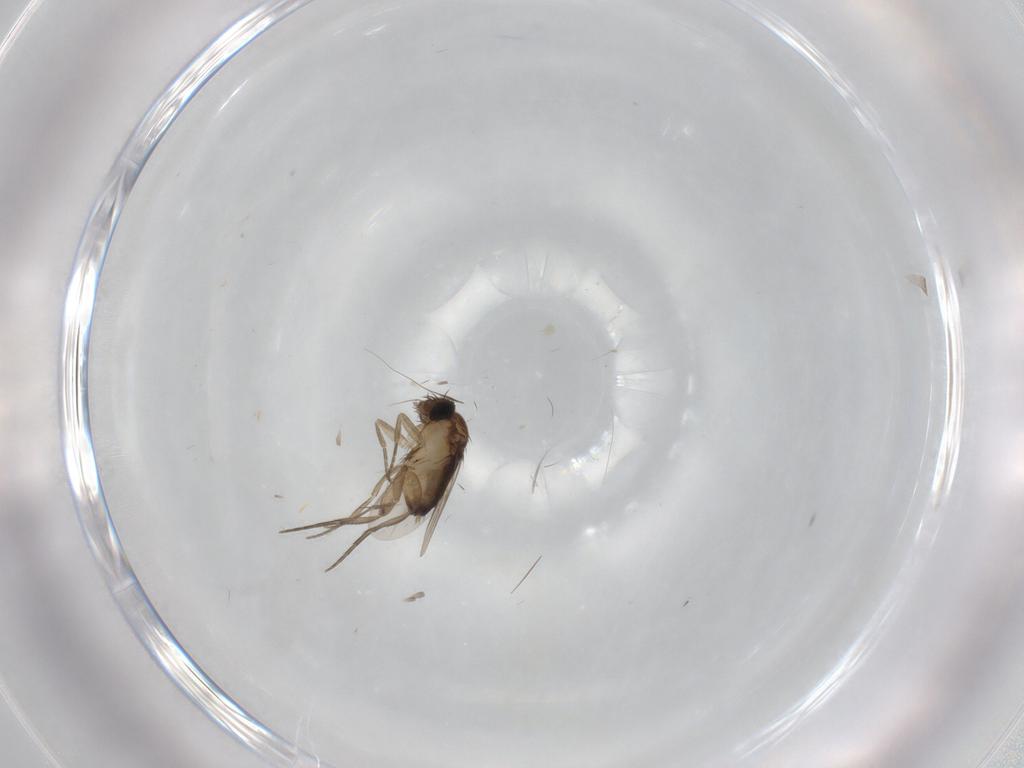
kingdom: Animalia
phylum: Arthropoda
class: Insecta
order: Diptera
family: Phoridae
